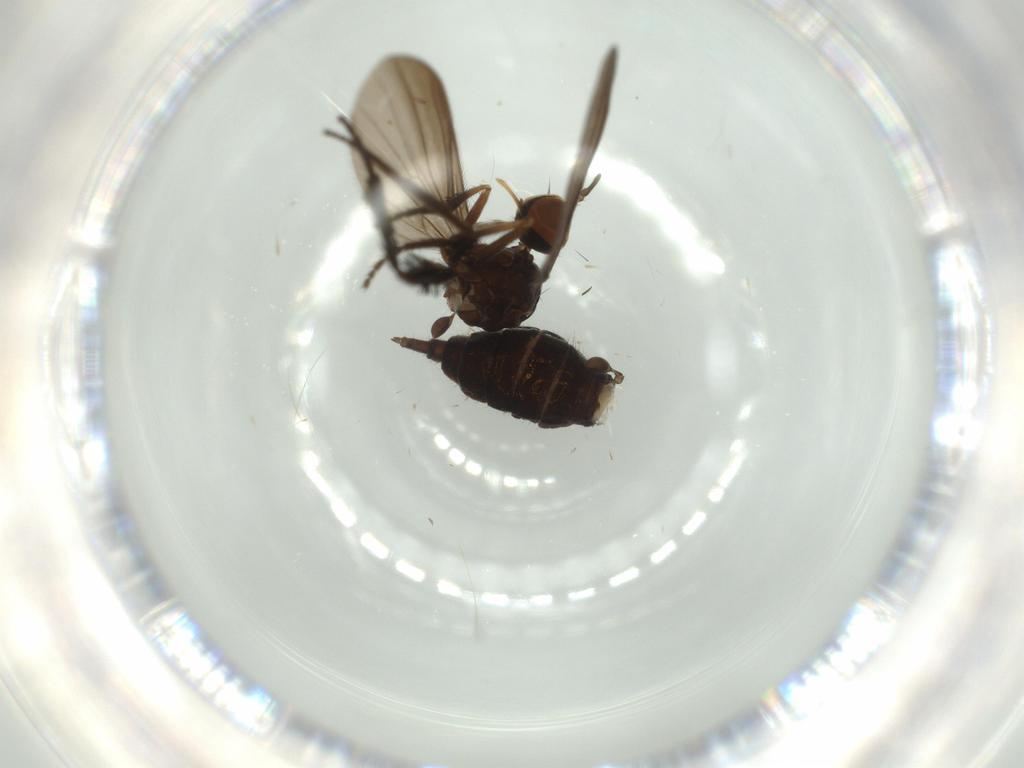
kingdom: Animalia
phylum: Arthropoda
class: Insecta
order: Diptera
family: Empididae
